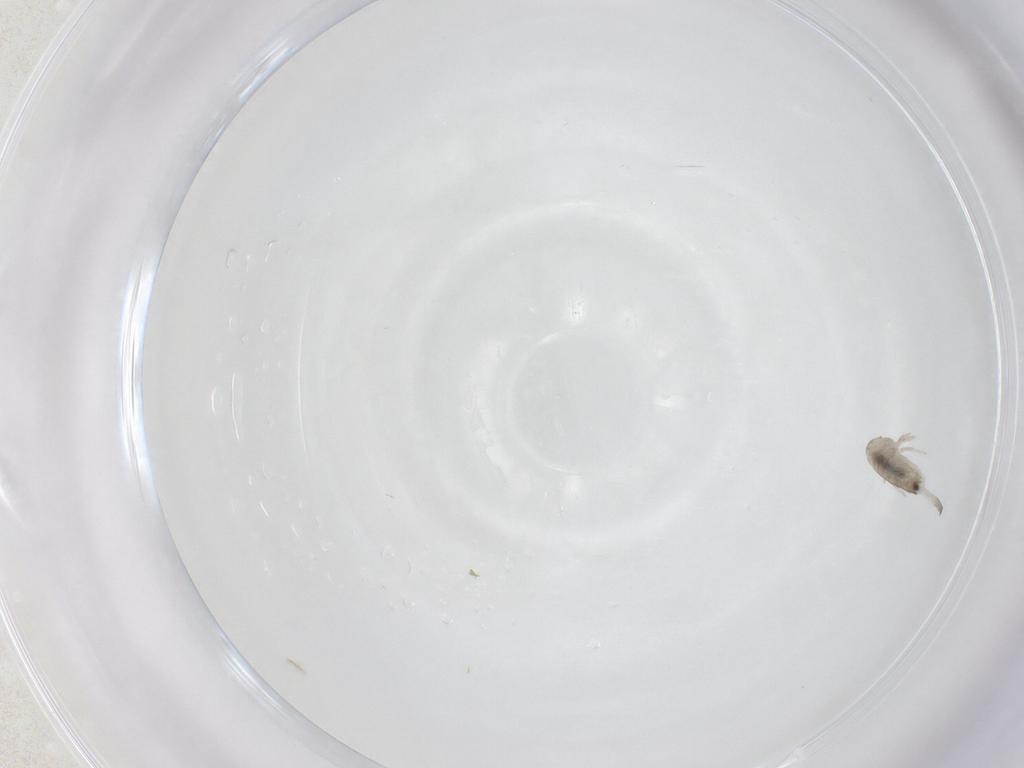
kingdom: Animalia
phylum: Arthropoda
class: Collembola
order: Entomobryomorpha
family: Entomobryidae
